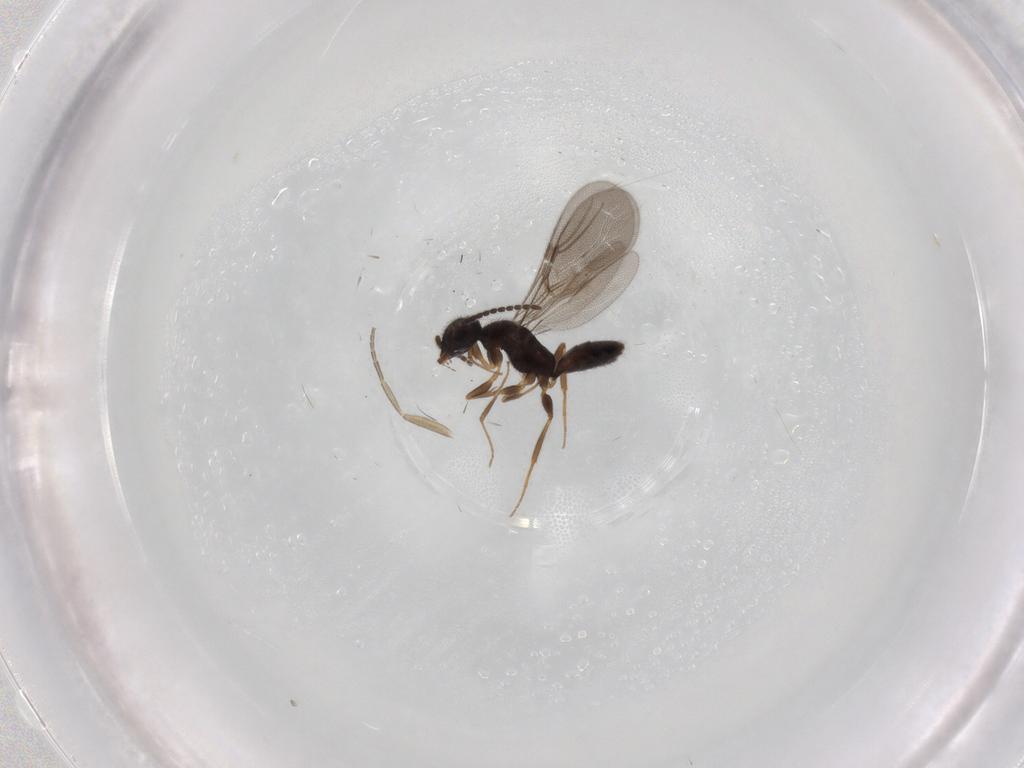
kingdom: Animalia
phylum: Arthropoda
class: Insecta
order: Hymenoptera
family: Bethylidae
